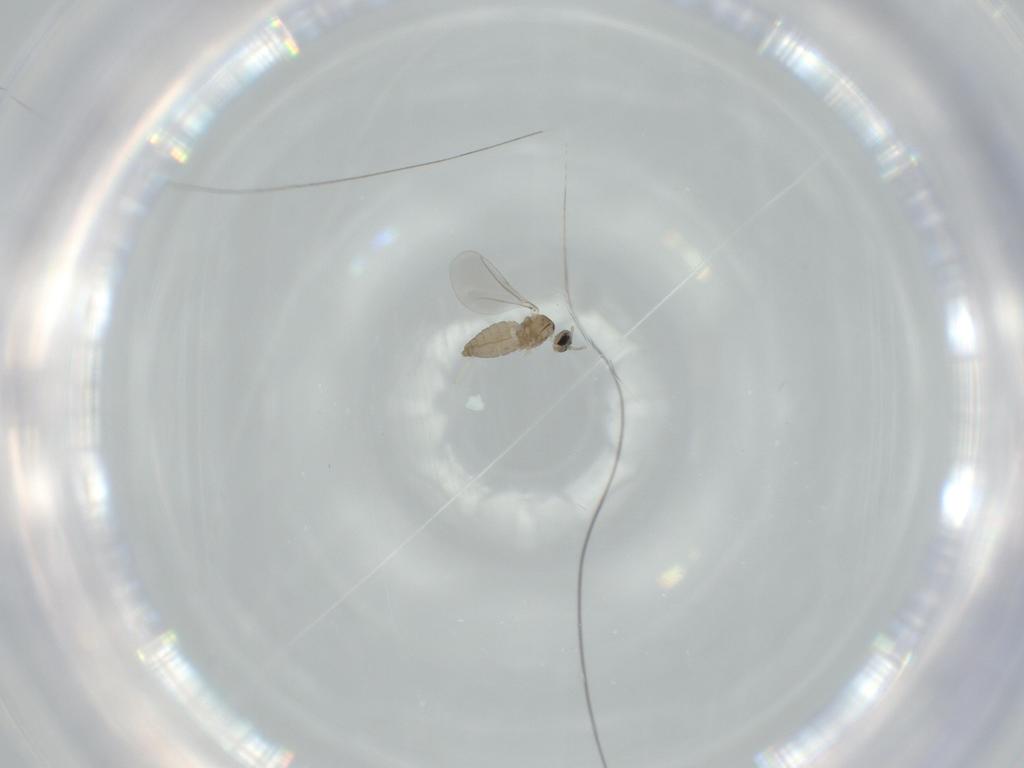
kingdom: Animalia
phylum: Arthropoda
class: Insecta
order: Diptera
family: Cecidomyiidae
